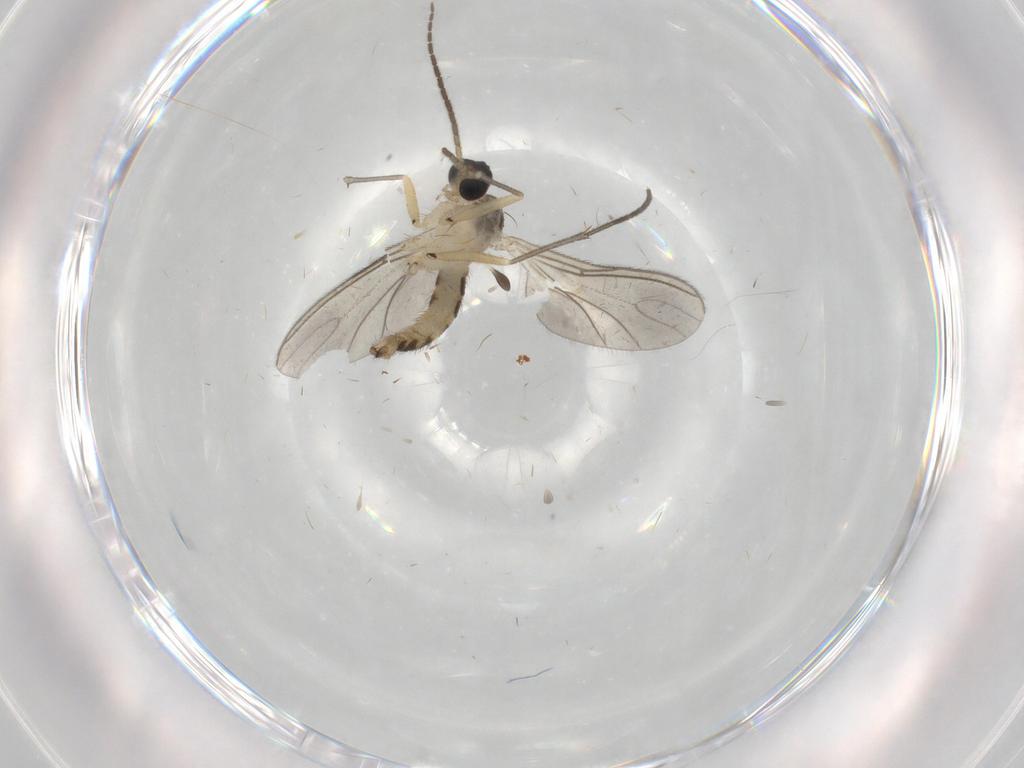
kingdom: Animalia
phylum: Arthropoda
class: Insecta
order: Diptera
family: Sciaridae
